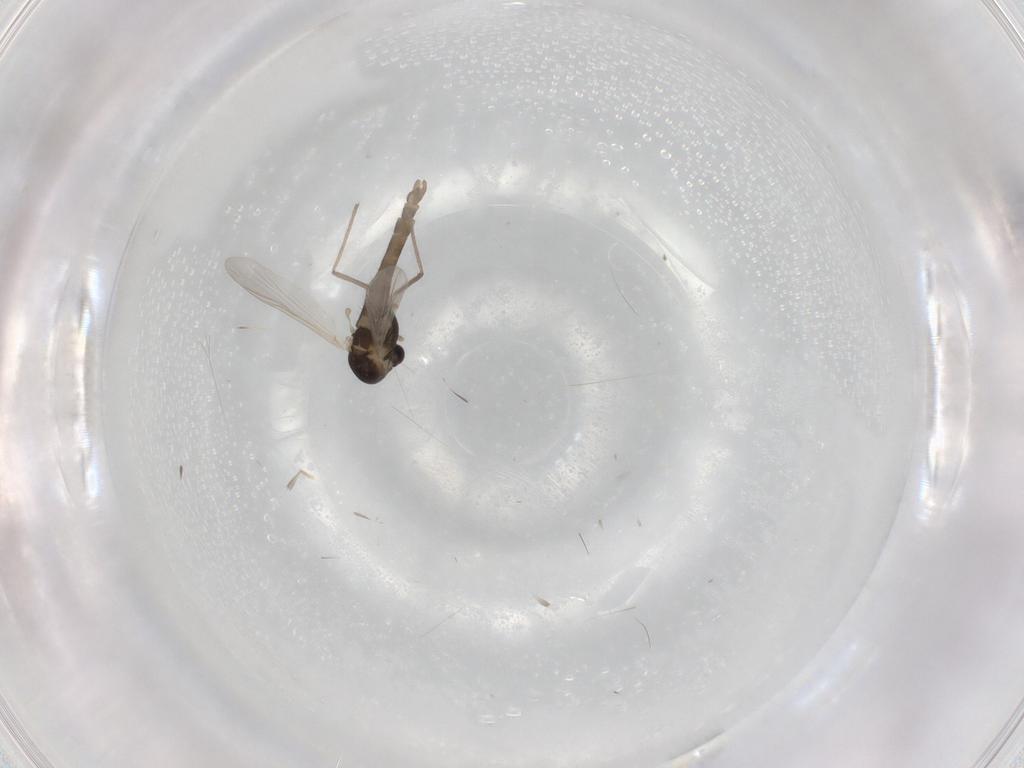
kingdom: Animalia
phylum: Arthropoda
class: Insecta
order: Diptera
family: Chironomidae
